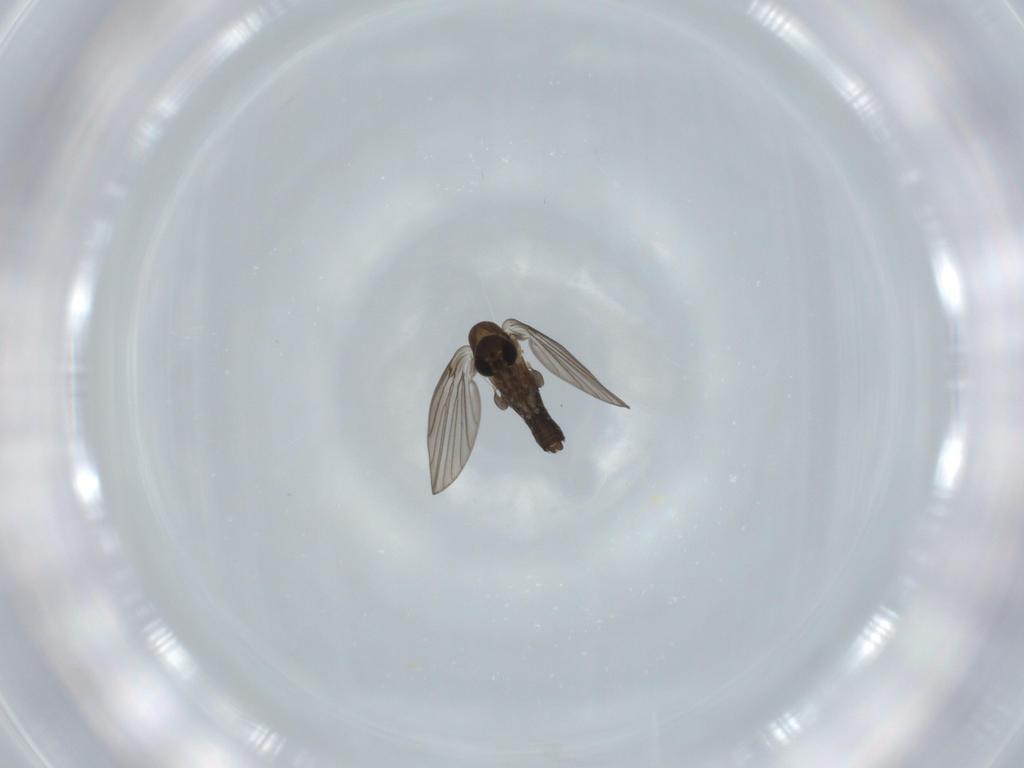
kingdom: Animalia
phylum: Arthropoda
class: Insecta
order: Diptera
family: Psychodidae
